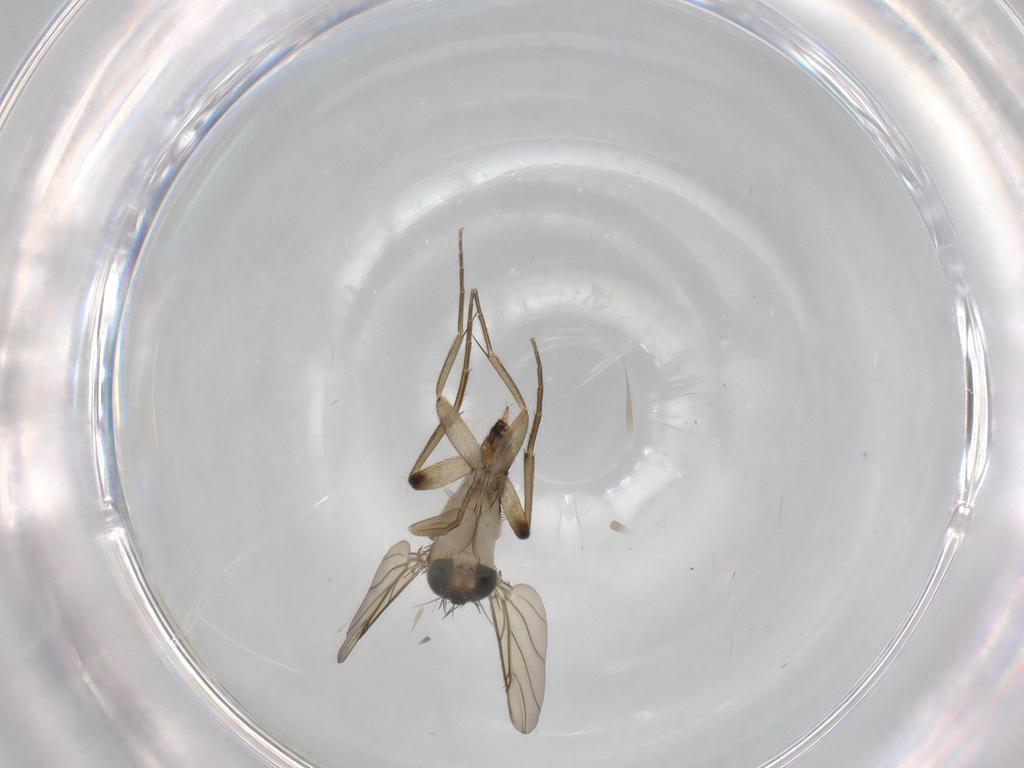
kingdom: Animalia
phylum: Arthropoda
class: Insecta
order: Diptera
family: Phoridae
